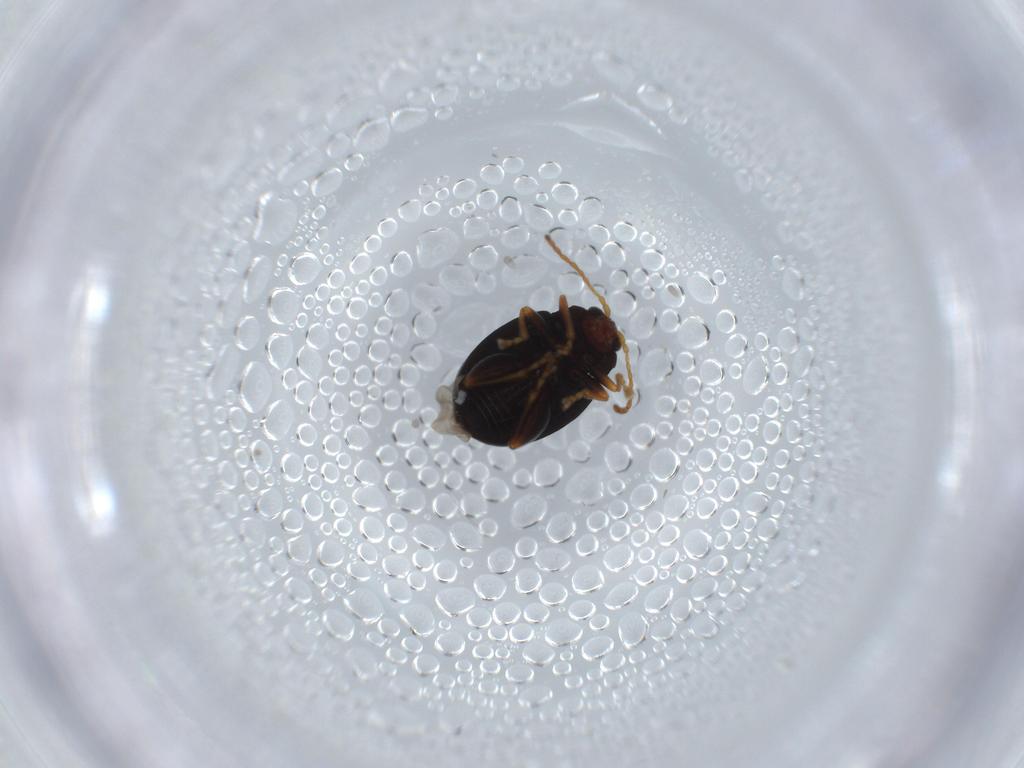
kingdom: Animalia
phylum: Arthropoda
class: Insecta
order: Coleoptera
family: Chrysomelidae
